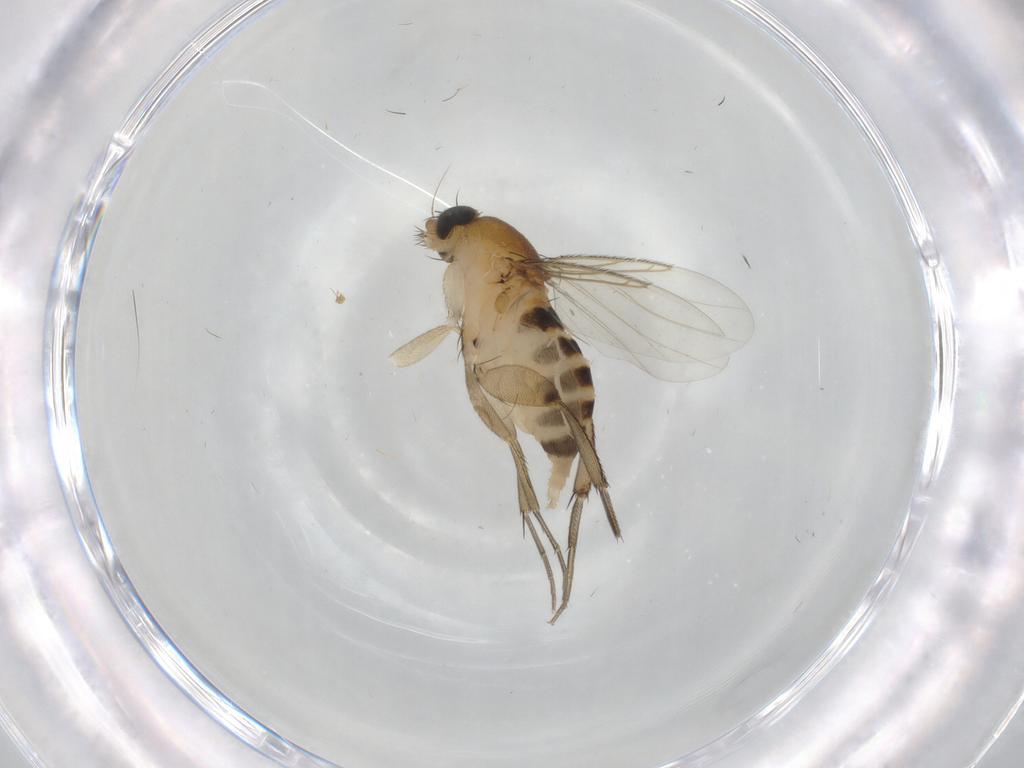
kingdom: Animalia
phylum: Arthropoda
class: Insecta
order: Diptera
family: Phoridae
